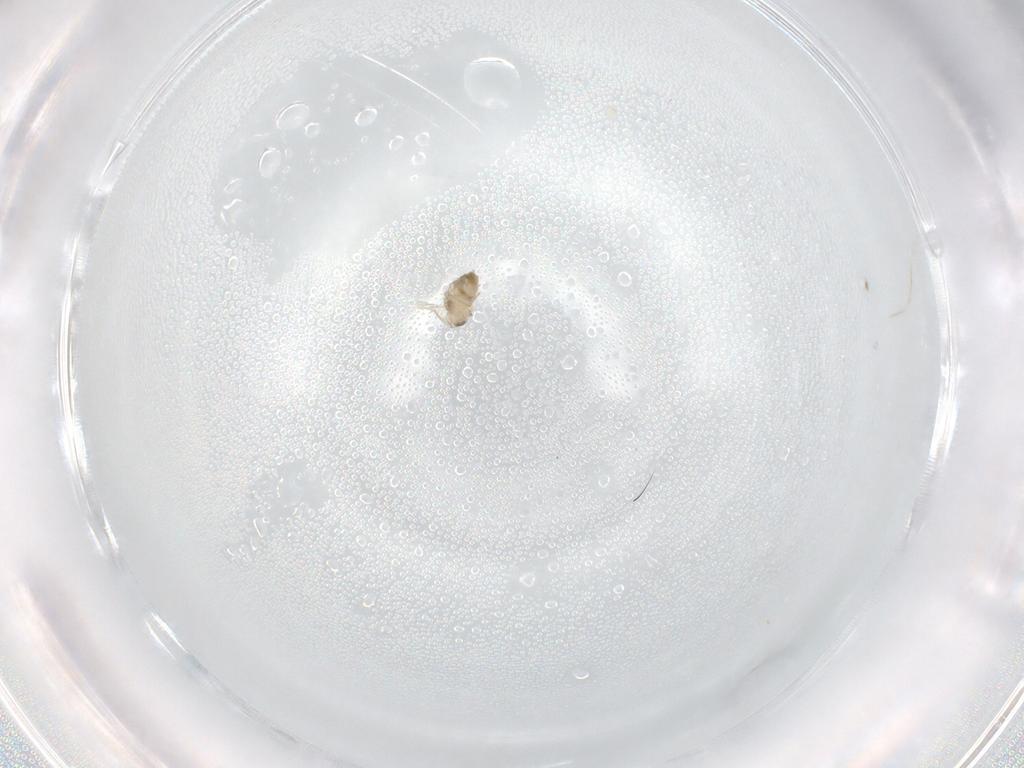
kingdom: Animalia
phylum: Arthropoda
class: Insecta
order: Diptera
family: Cecidomyiidae
